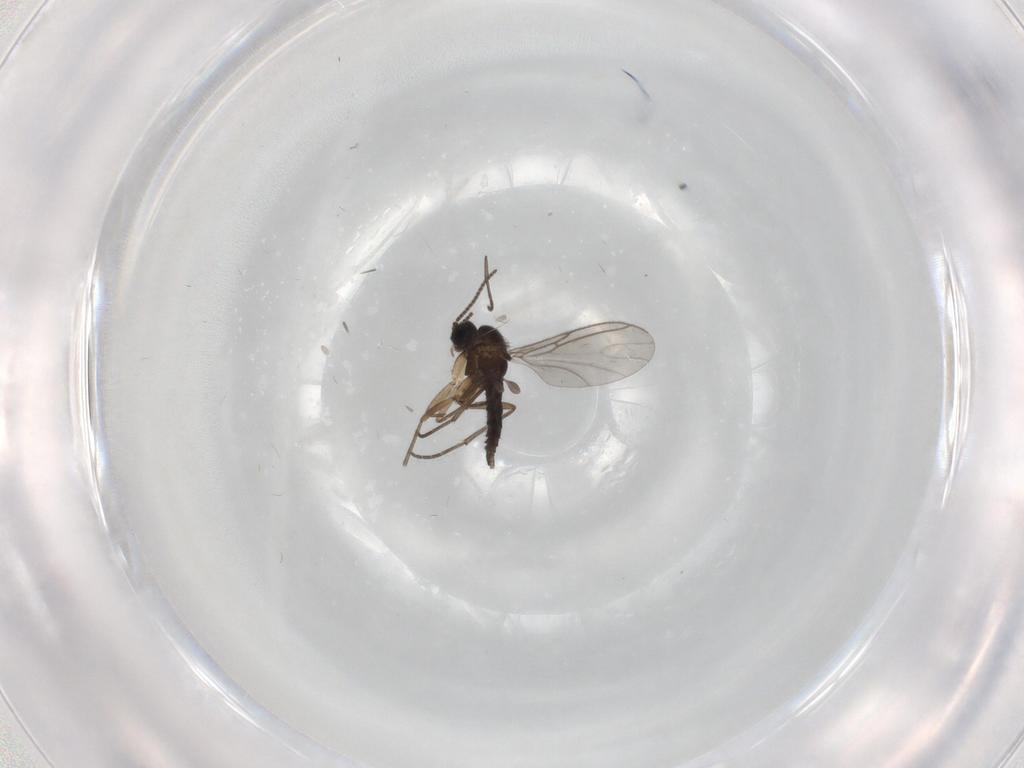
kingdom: Animalia
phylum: Arthropoda
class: Insecta
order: Diptera
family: Sciaridae
